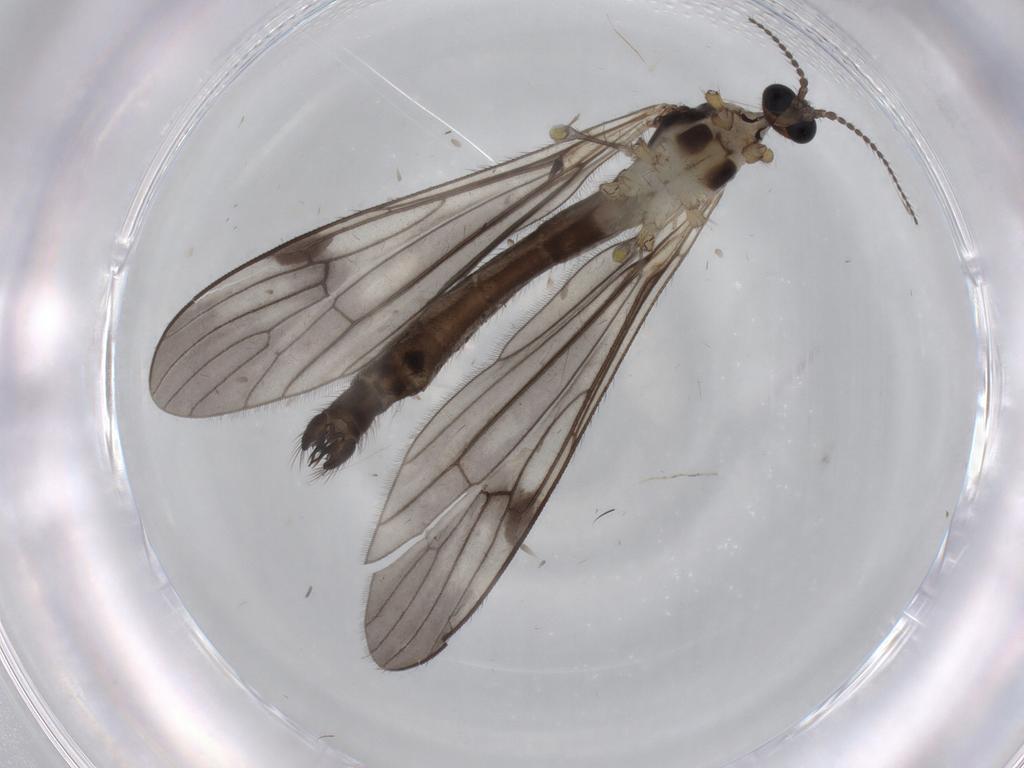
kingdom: Animalia
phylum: Arthropoda
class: Insecta
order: Diptera
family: Limoniidae
